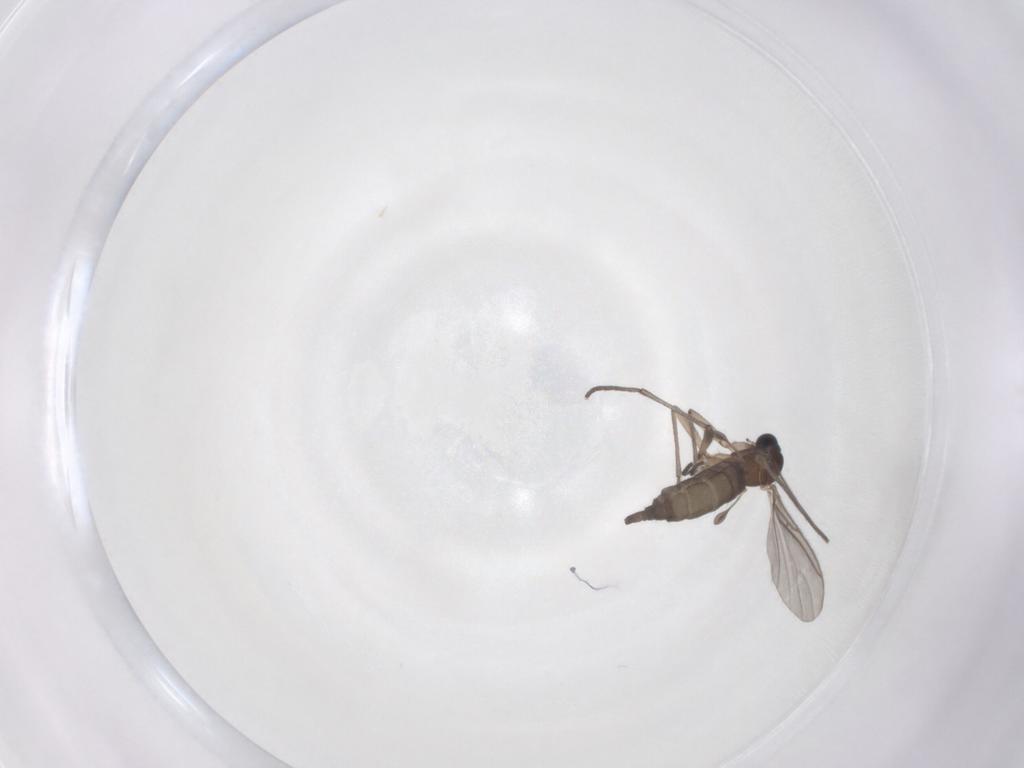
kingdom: Animalia
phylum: Arthropoda
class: Insecta
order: Diptera
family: Sciaridae
